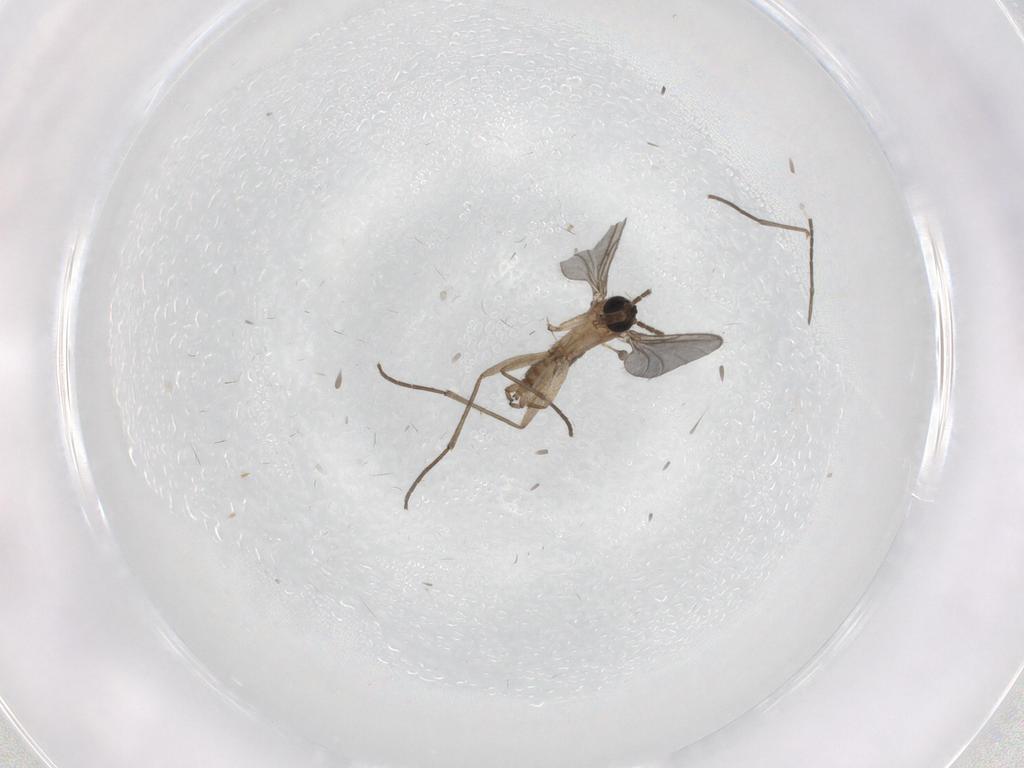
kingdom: Animalia
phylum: Arthropoda
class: Insecta
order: Diptera
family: Sciaridae
